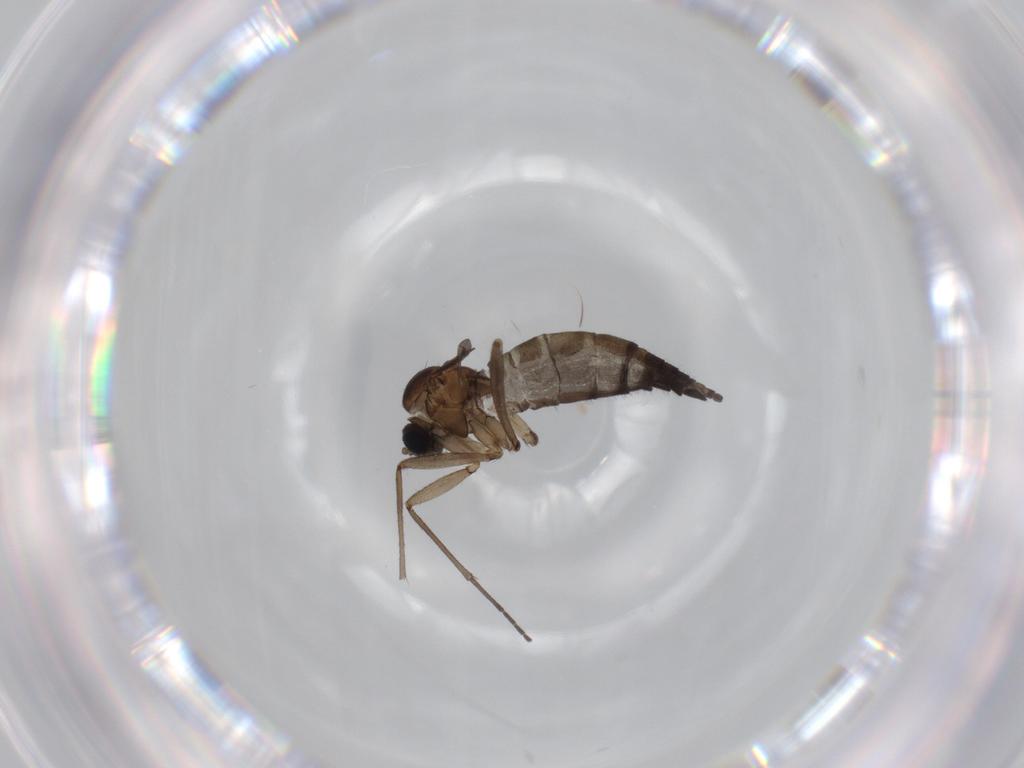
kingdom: Animalia
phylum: Arthropoda
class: Insecta
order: Diptera
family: Sciaridae
